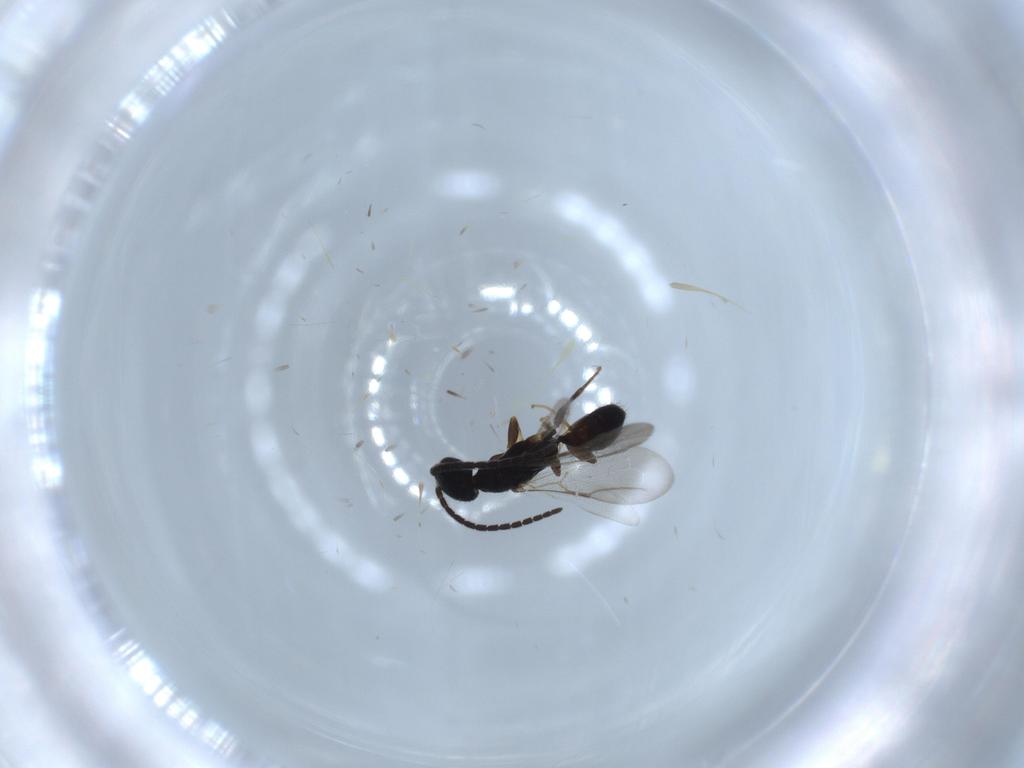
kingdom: Animalia
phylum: Arthropoda
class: Insecta
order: Hymenoptera
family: Bethylidae
